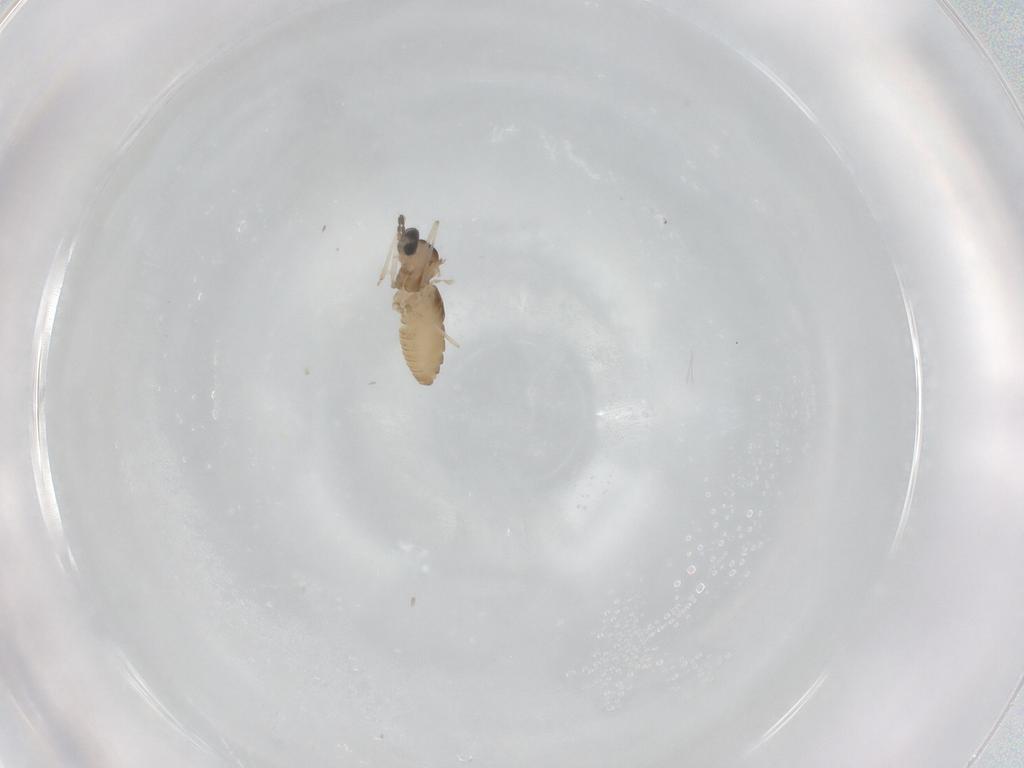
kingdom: Animalia
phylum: Arthropoda
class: Insecta
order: Diptera
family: Cecidomyiidae
